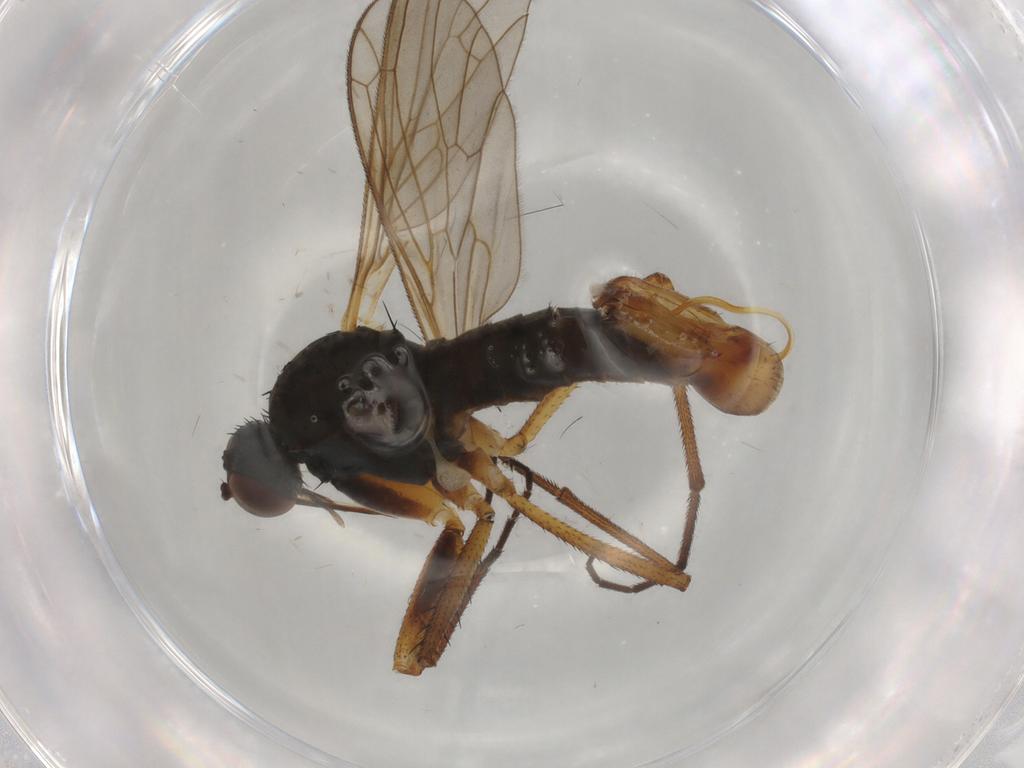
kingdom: Animalia
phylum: Arthropoda
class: Insecta
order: Diptera
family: Chironomidae
